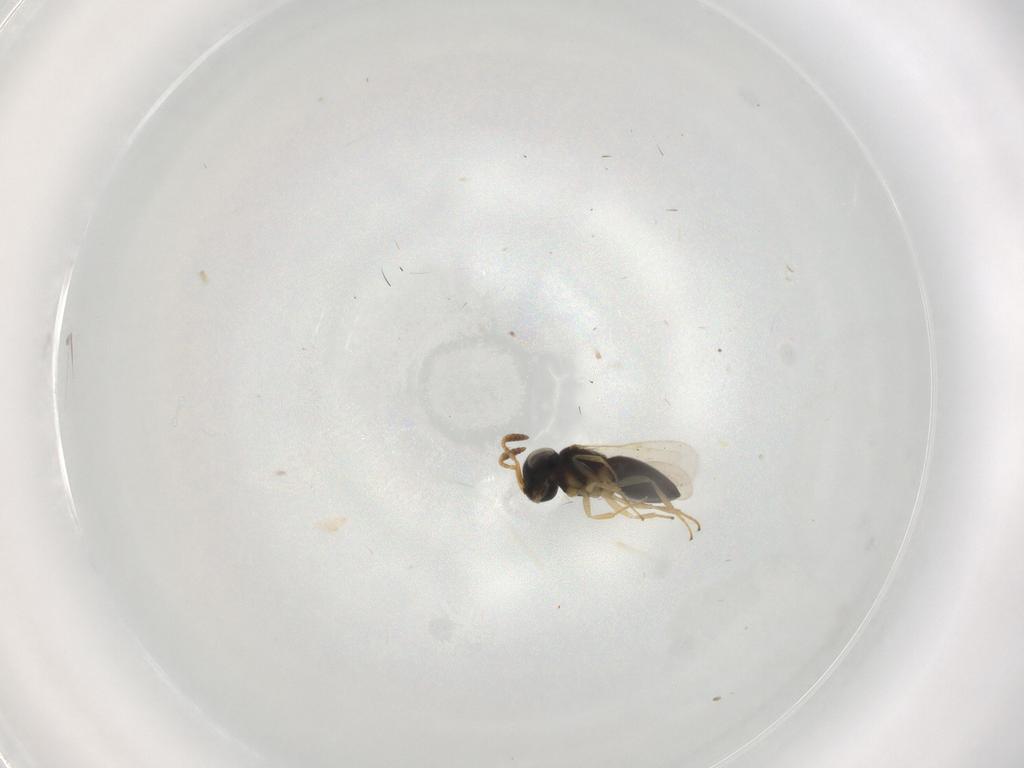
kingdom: Animalia
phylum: Arthropoda
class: Insecta
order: Hymenoptera
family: Scelionidae
